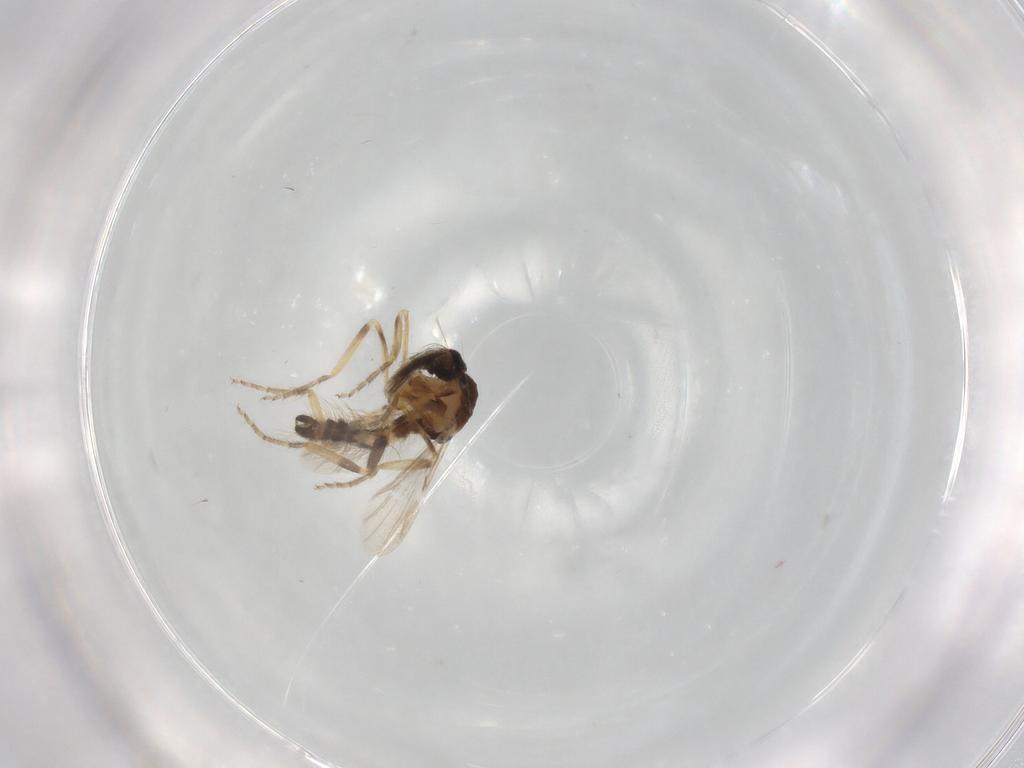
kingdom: Animalia
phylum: Arthropoda
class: Insecta
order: Diptera
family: Ceratopogonidae
